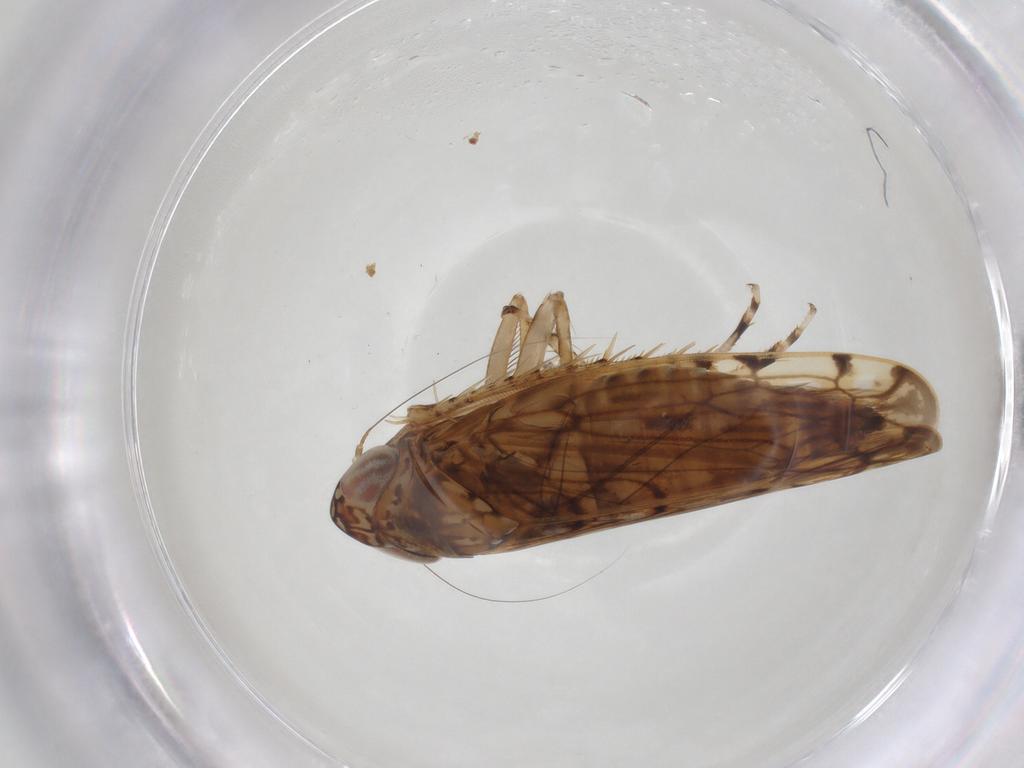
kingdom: Animalia
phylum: Arthropoda
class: Insecta
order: Hemiptera
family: Cicadellidae
